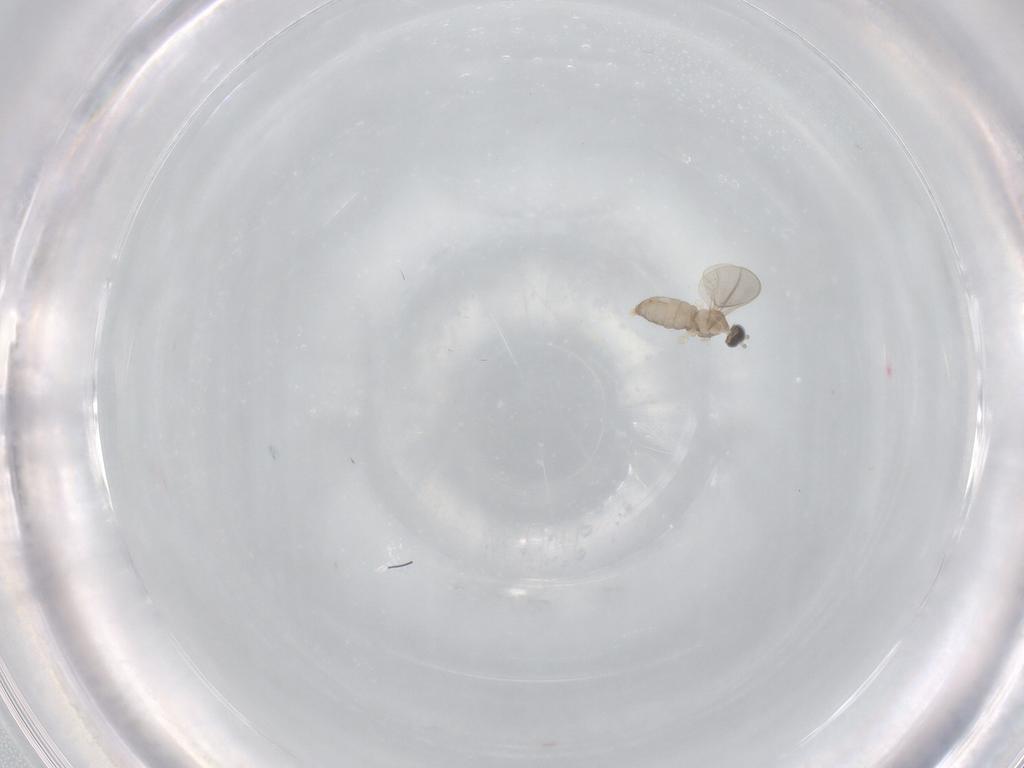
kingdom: Animalia
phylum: Arthropoda
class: Insecta
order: Diptera
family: Cecidomyiidae
